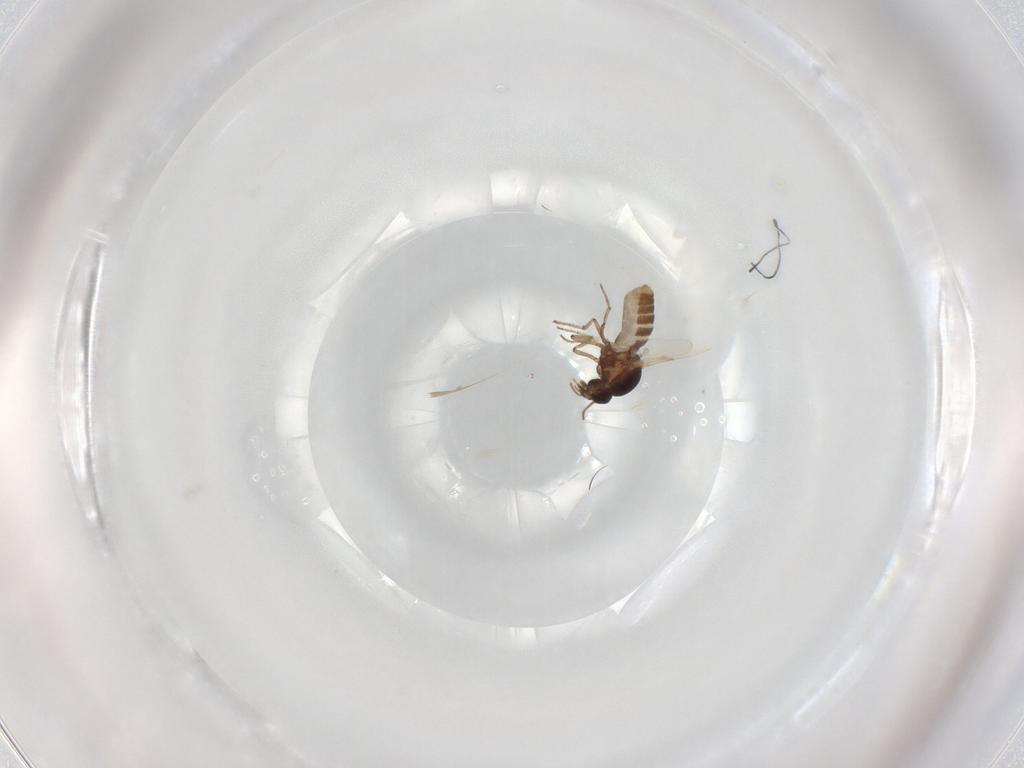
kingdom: Animalia
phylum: Arthropoda
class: Insecta
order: Diptera
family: Ceratopogonidae
